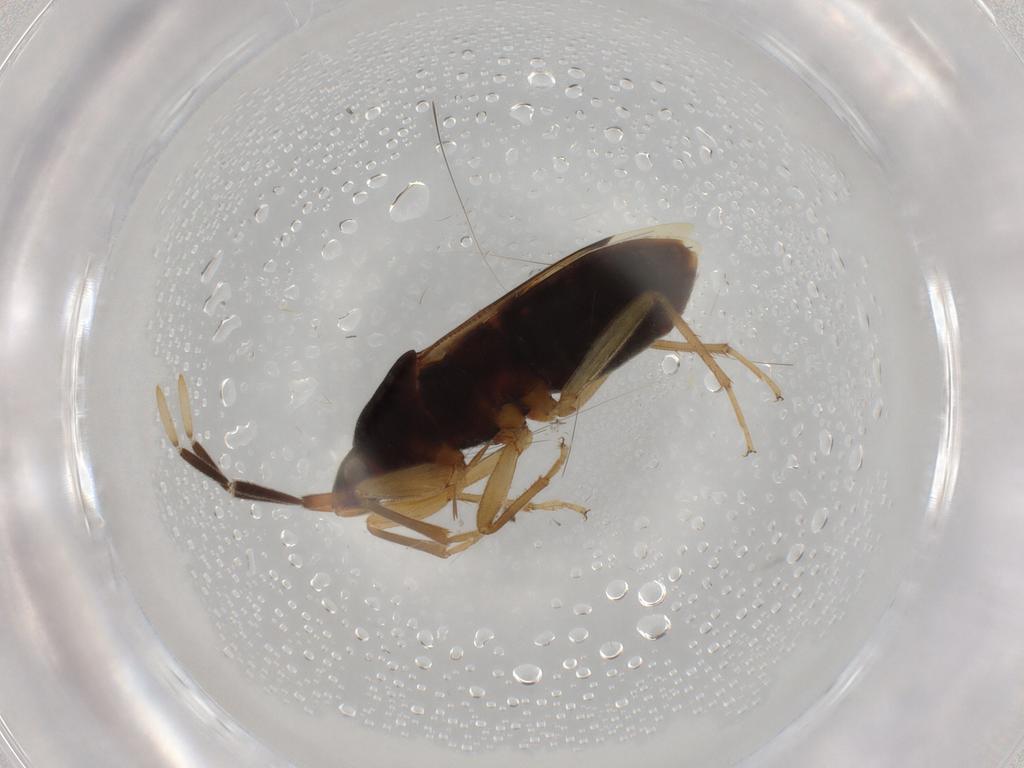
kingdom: Animalia
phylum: Arthropoda
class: Insecta
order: Hemiptera
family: Rhyparochromidae
